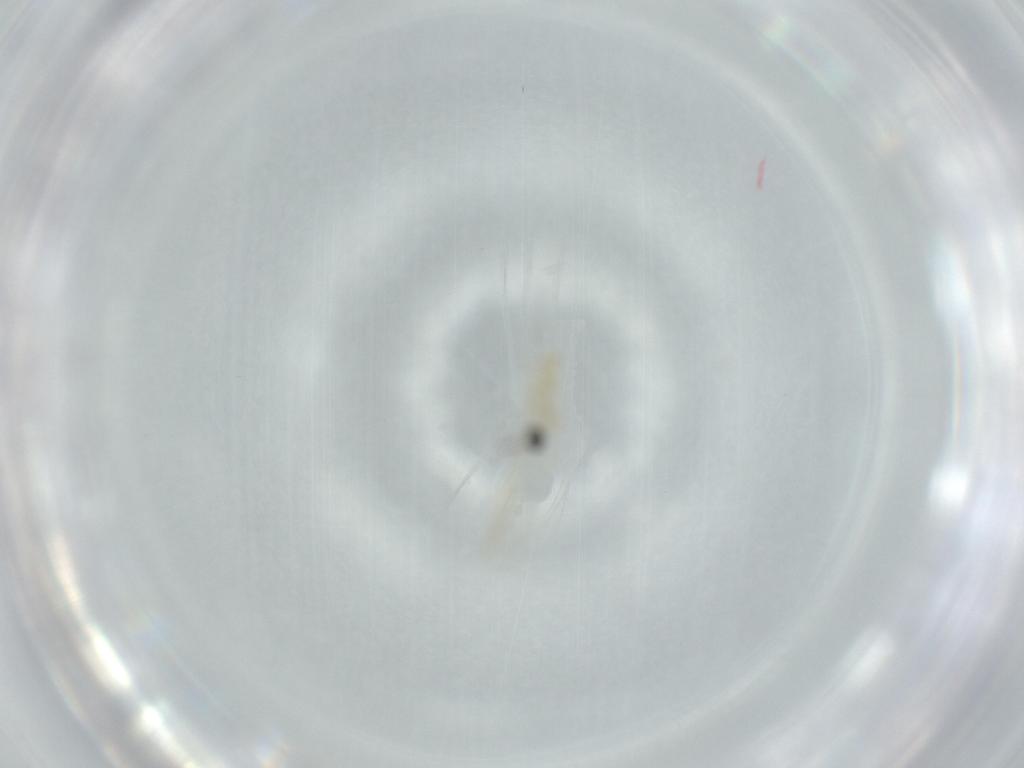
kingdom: Animalia
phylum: Arthropoda
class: Insecta
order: Diptera
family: Cecidomyiidae
